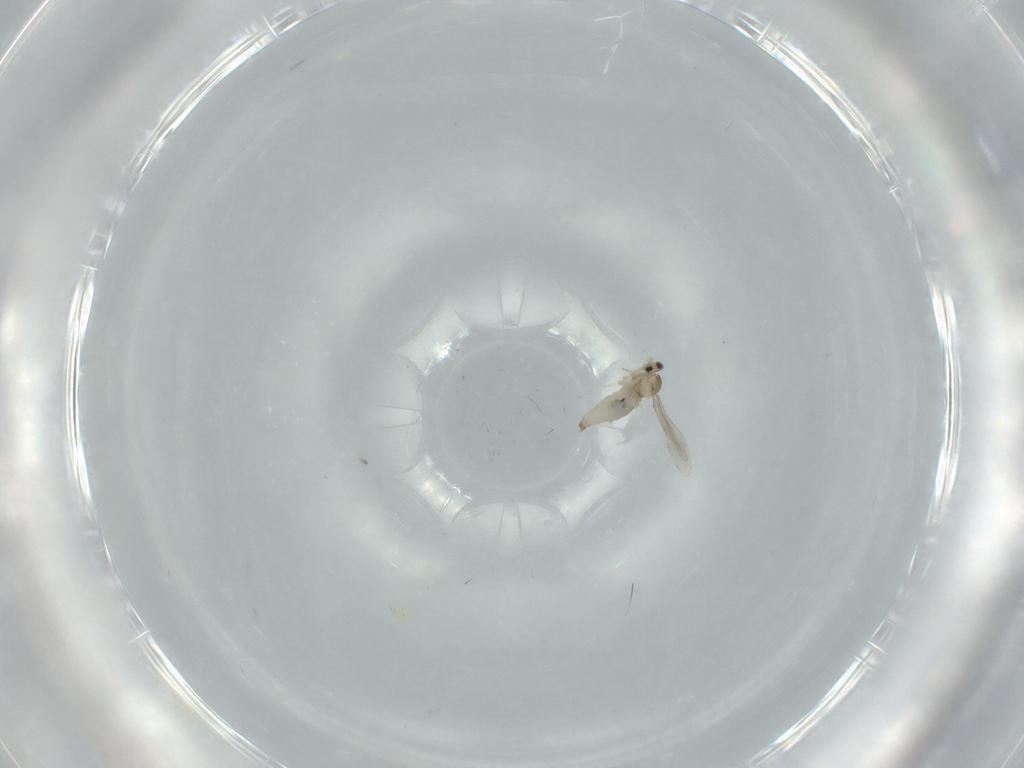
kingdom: Animalia
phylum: Arthropoda
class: Insecta
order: Diptera
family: Cecidomyiidae
